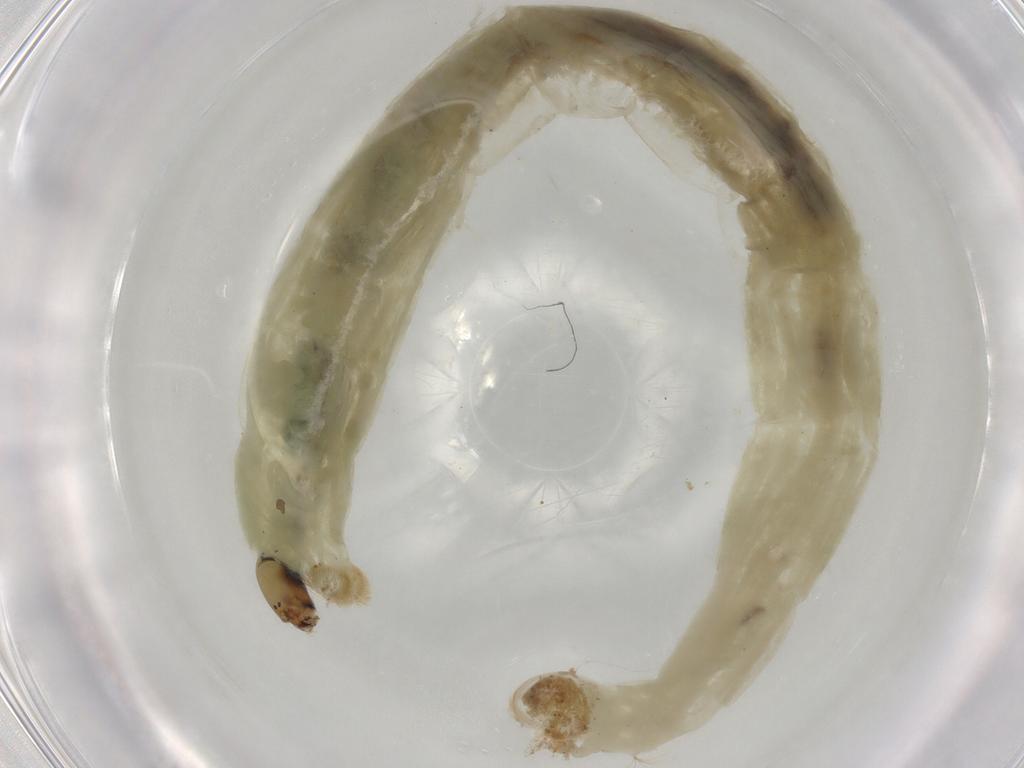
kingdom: Animalia
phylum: Arthropoda
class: Insecta
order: Diptera
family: Chironomidae
